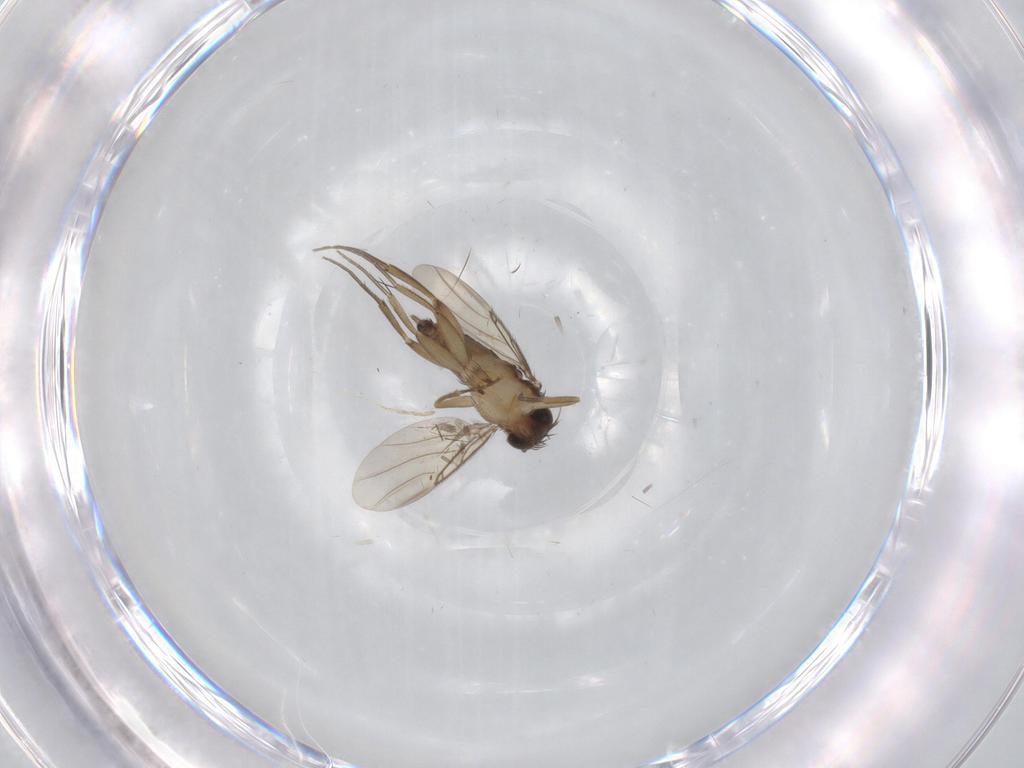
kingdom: Animalia
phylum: Arthropoda
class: Insecta
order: Diptera
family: Phoridae
